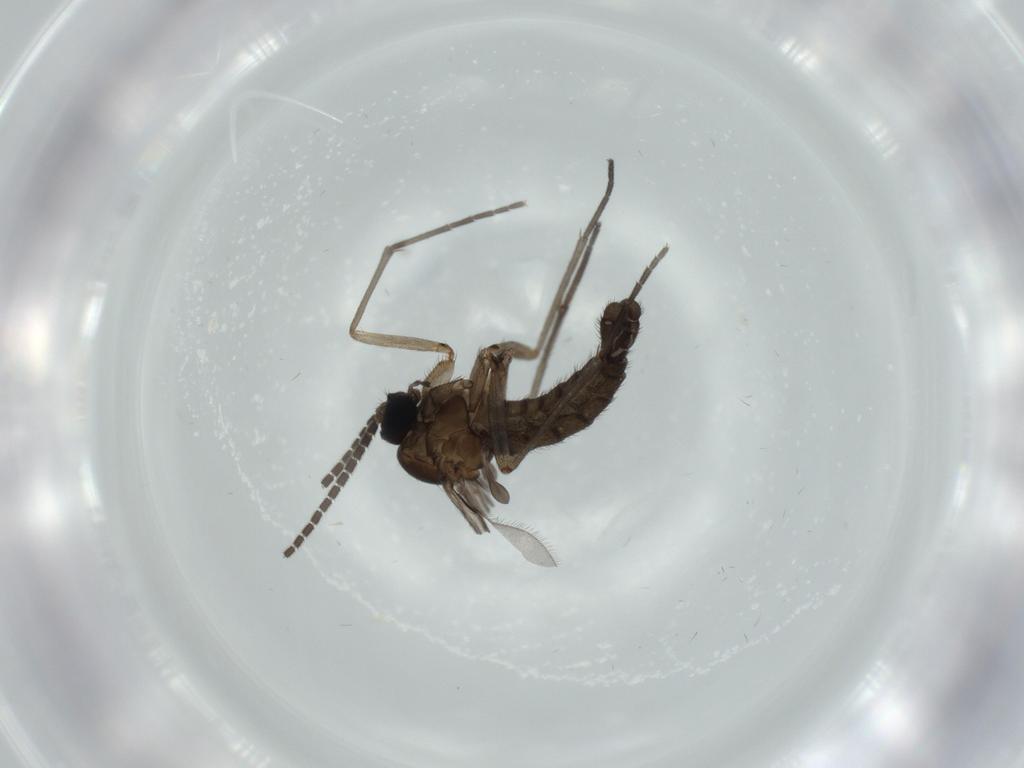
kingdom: Animalia
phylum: Arthropoda
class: Insecta
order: Diptera
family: Sciaridae
